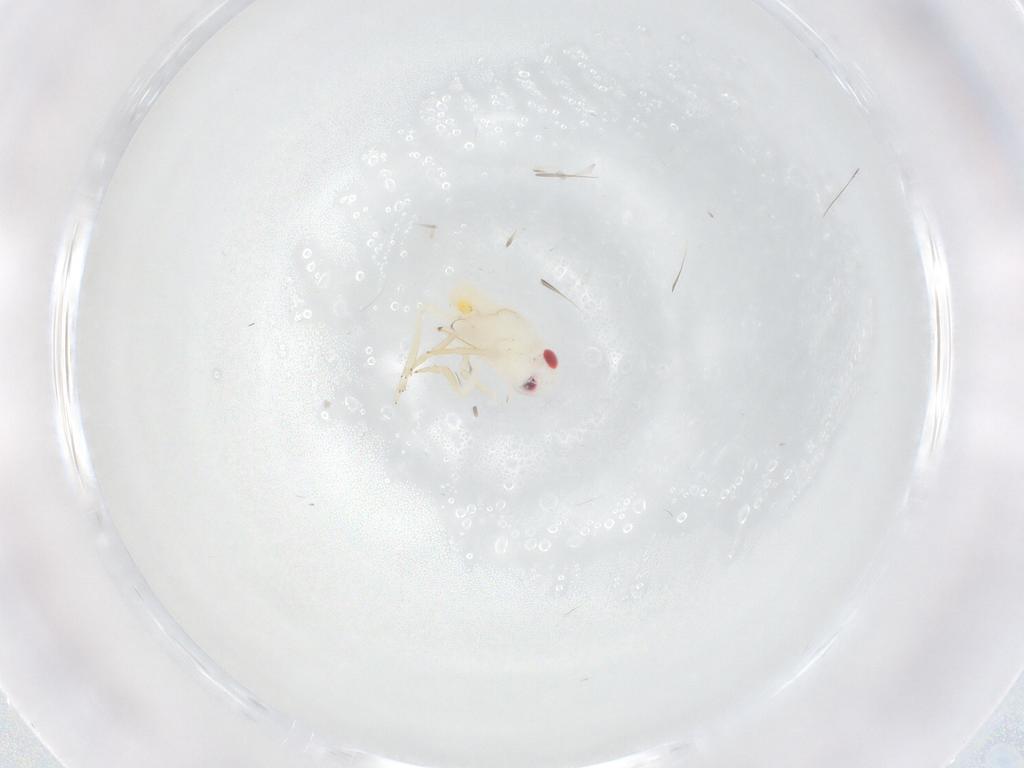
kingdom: Animalia
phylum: Arthropoda
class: Insecta
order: Hemiptera
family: Tropiduchidae
